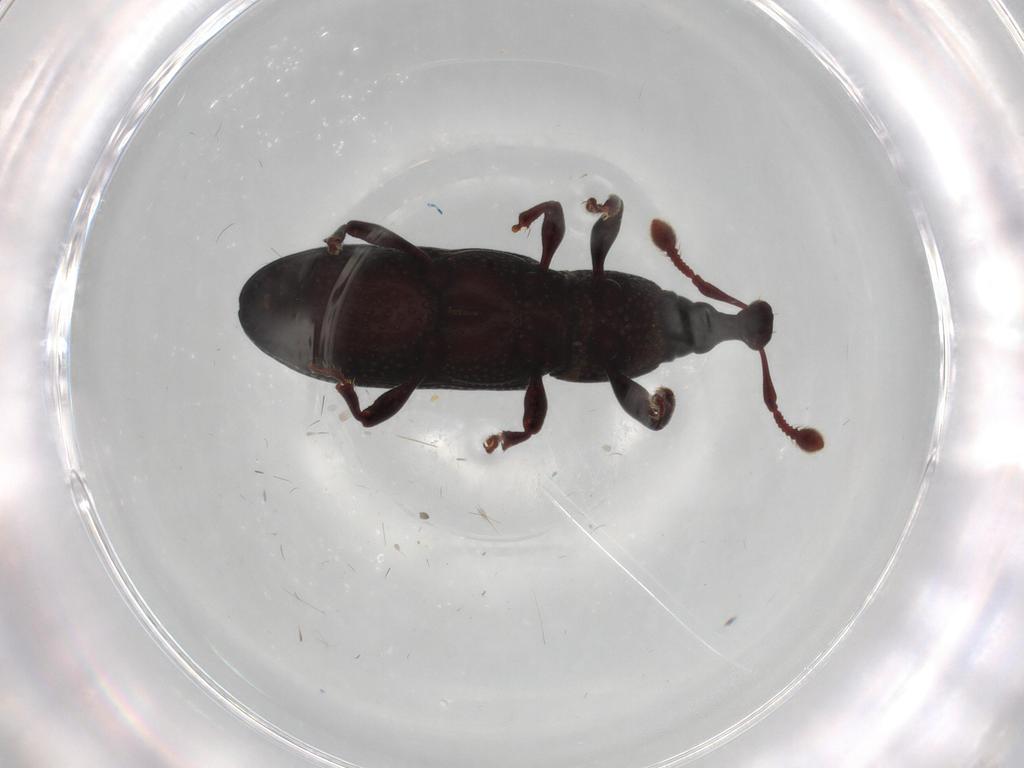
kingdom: Animalia
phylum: Arthropoda
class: Insecta
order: Coleoptera
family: Curculionidae
